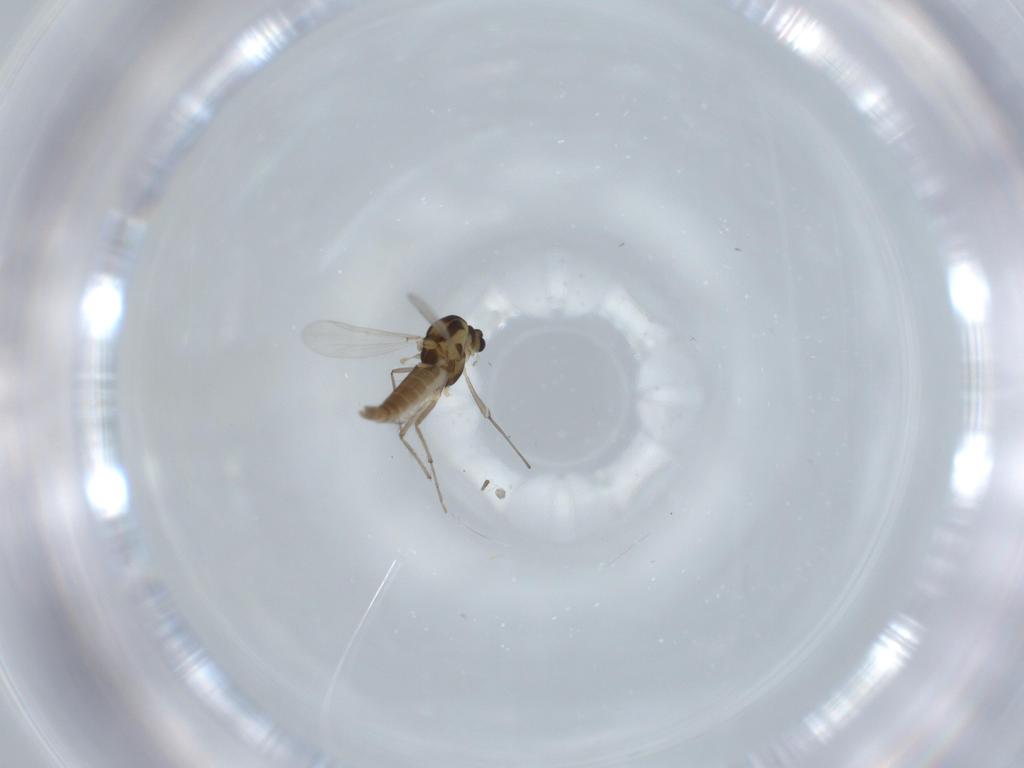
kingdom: Animalia
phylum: Arthropoda
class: Insecta
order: Diptera
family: Chironomidae
